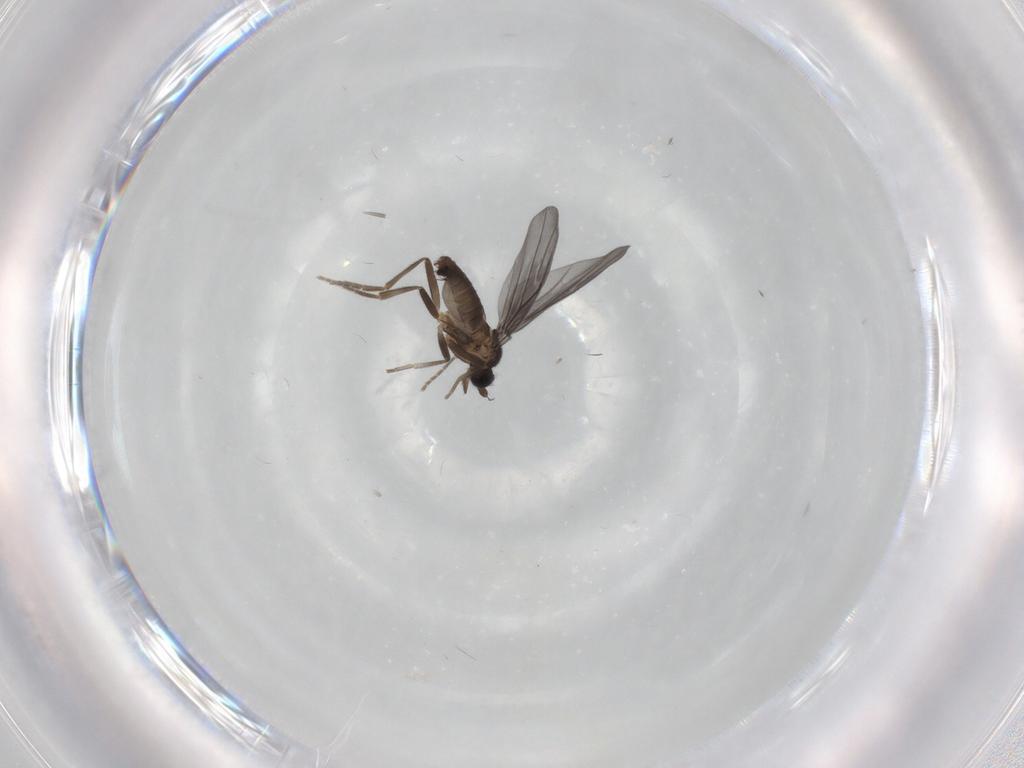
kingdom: Animalia
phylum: Arthropoda
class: Insecta
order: Diptera
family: Phoridae
